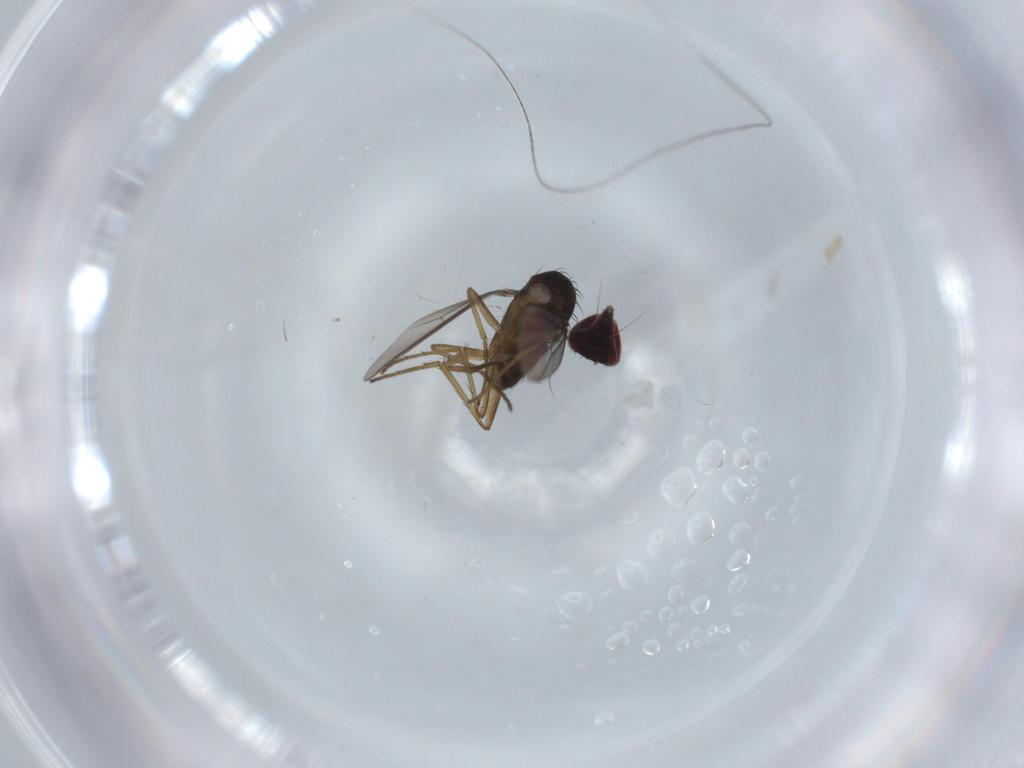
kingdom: Animalia
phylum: Arthropoda
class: Insecta
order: Diptera
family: Dolichopodidae
